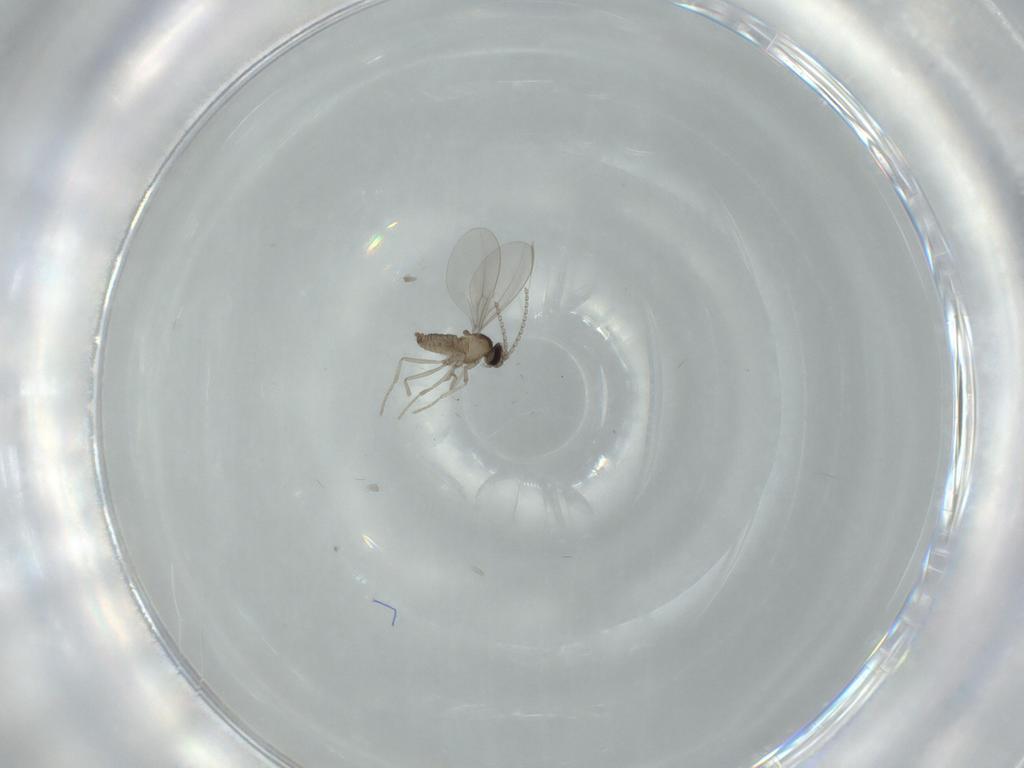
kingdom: Animalia
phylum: Arthropoda
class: Insecta
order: Diptera
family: Cecidomyiidae
